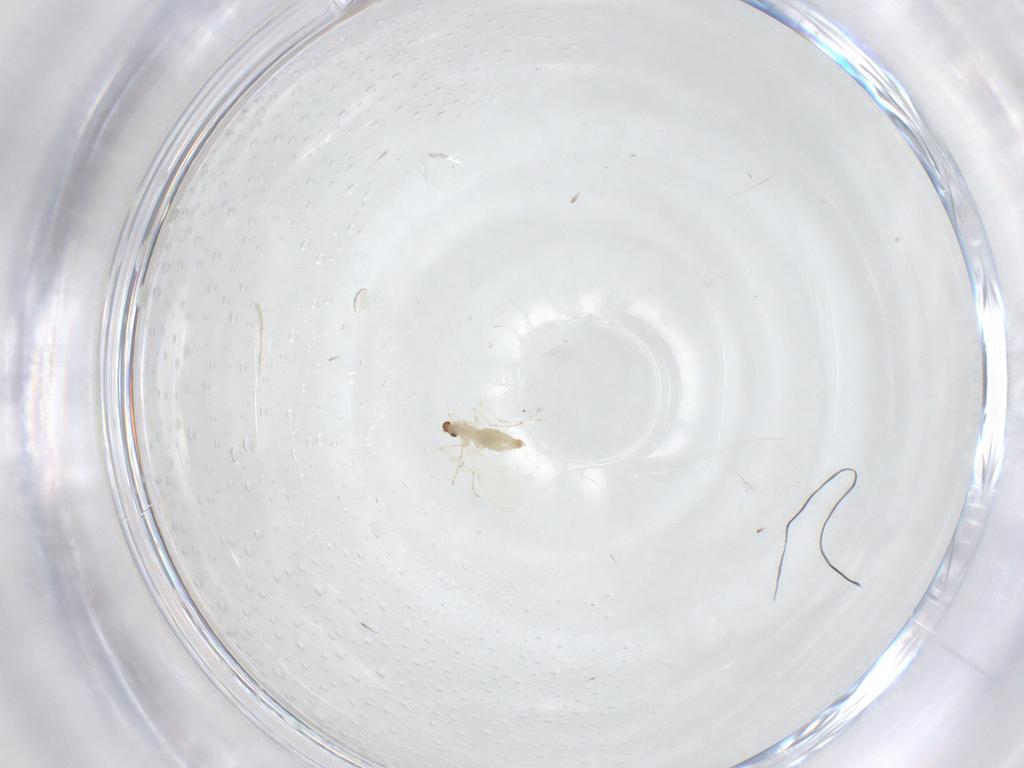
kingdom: Animalia
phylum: Arthropoda
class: Insecta
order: Diptera
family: Cecidomyiidae
